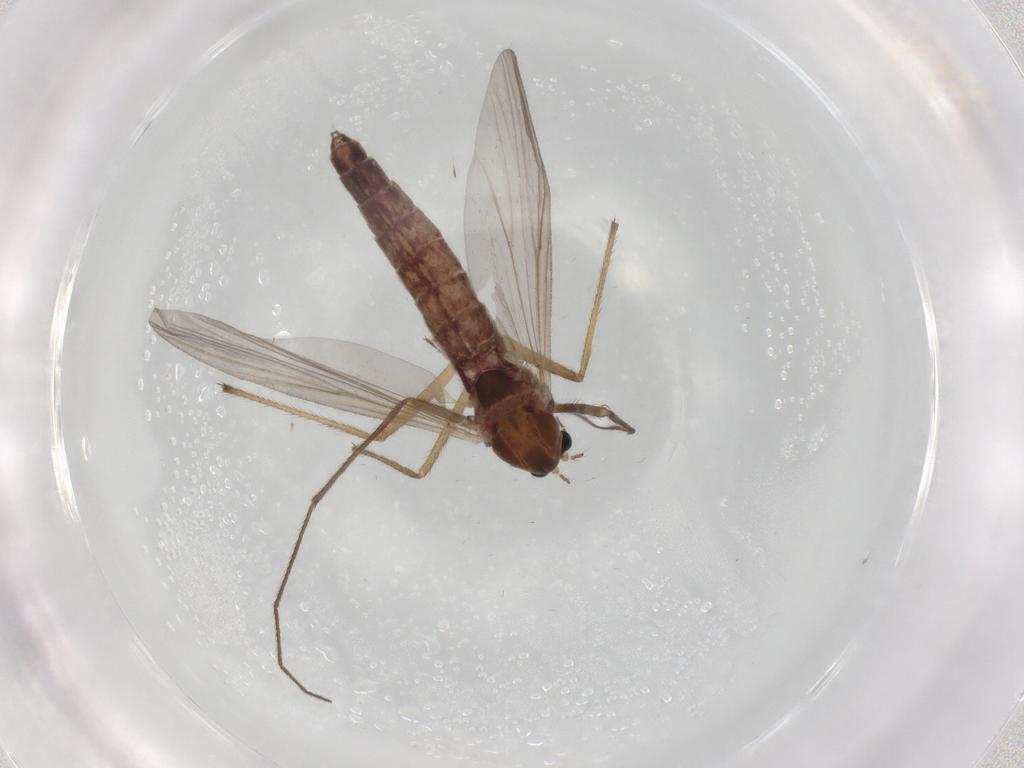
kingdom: Animalia
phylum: Arthropoda
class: Insecta
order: Diptera
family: Chironomidae
